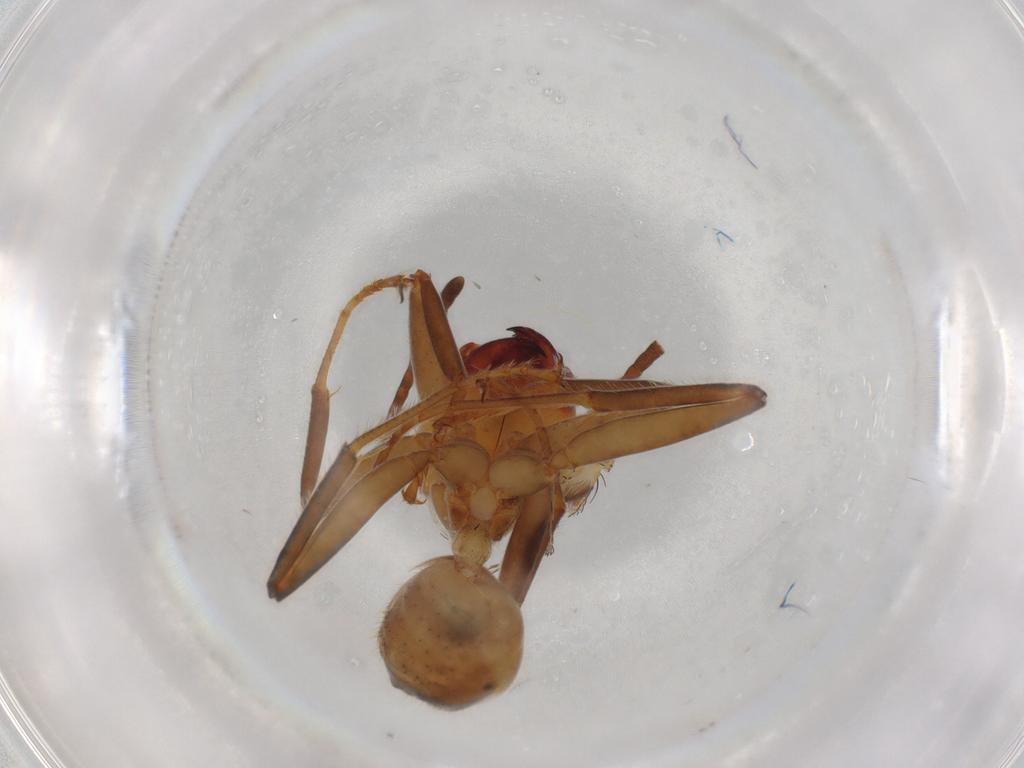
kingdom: Animalia
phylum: Arthropoda
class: Insecta
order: Hymenoptera
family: Formicidae
